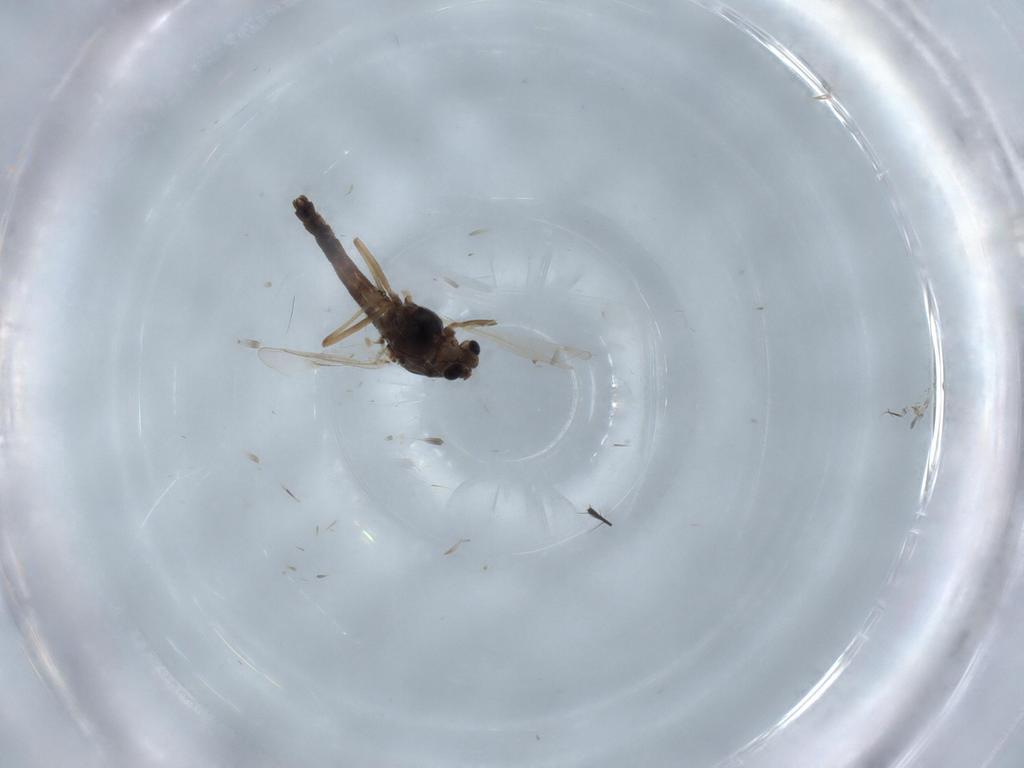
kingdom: Animalia
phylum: Arthropoda
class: Insecta
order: Diptera
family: Chironomidae
